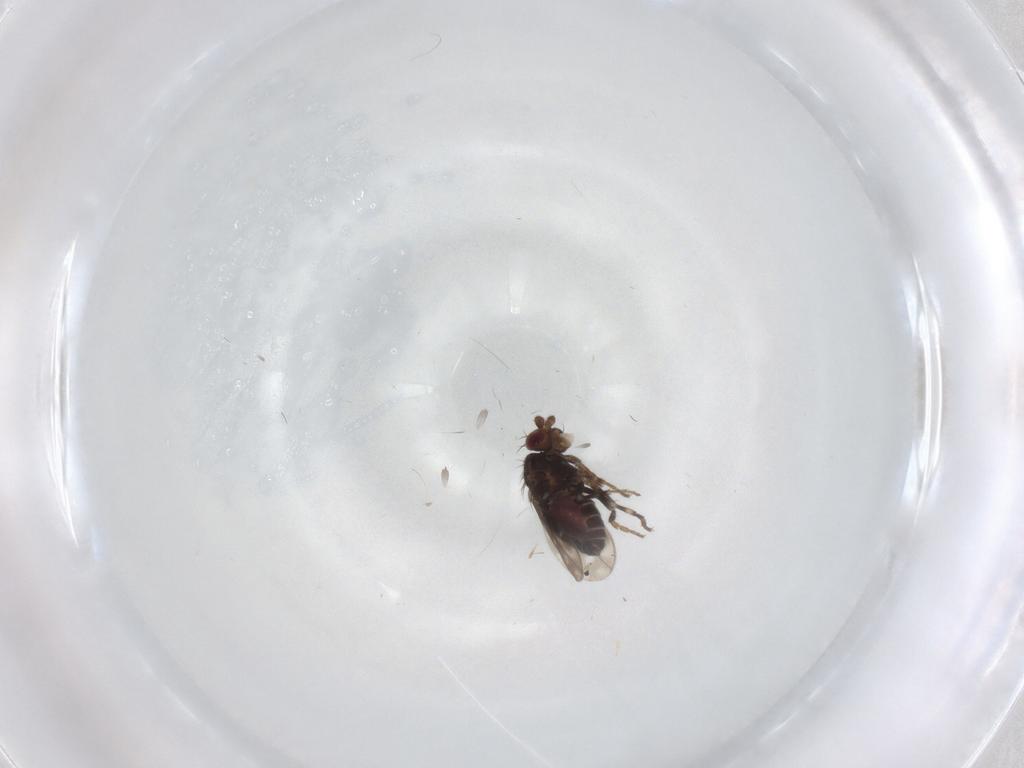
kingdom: Animalia
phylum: Arthropoda
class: Insecta
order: Diptera
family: Sphaeroceridae
